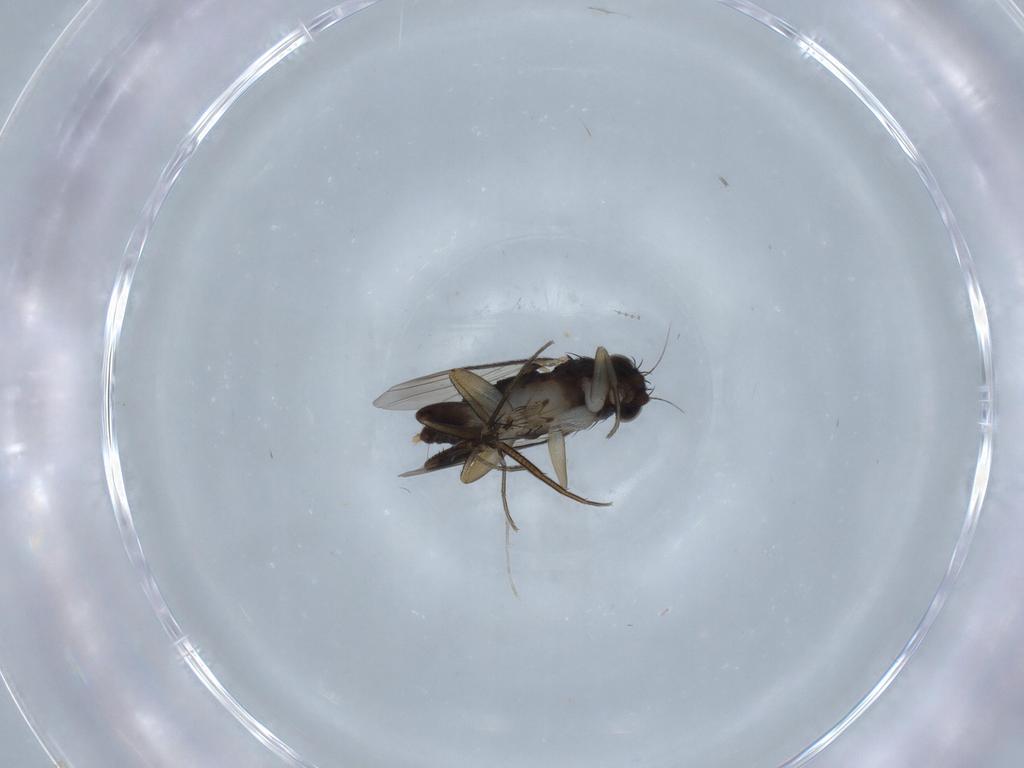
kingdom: Animalia
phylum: Arthropoda
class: Insecta
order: Diptera
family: Phoridae
